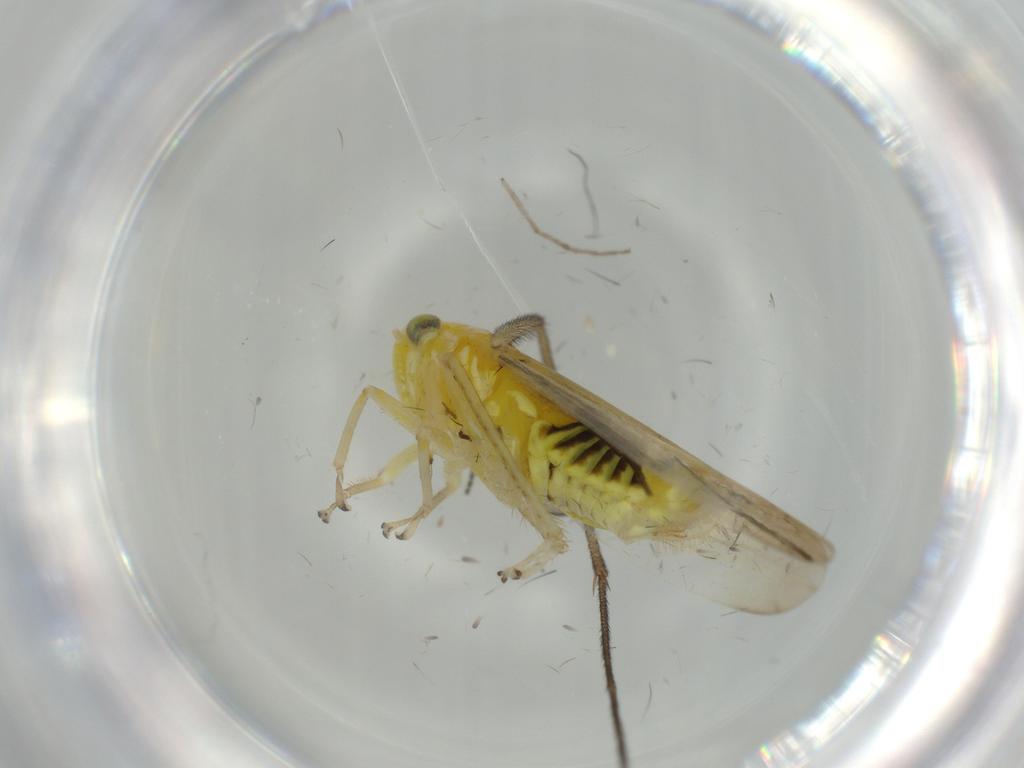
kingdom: Animalia
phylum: Arthropoda
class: Insecta
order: Hemiptera
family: Cicadellidae
